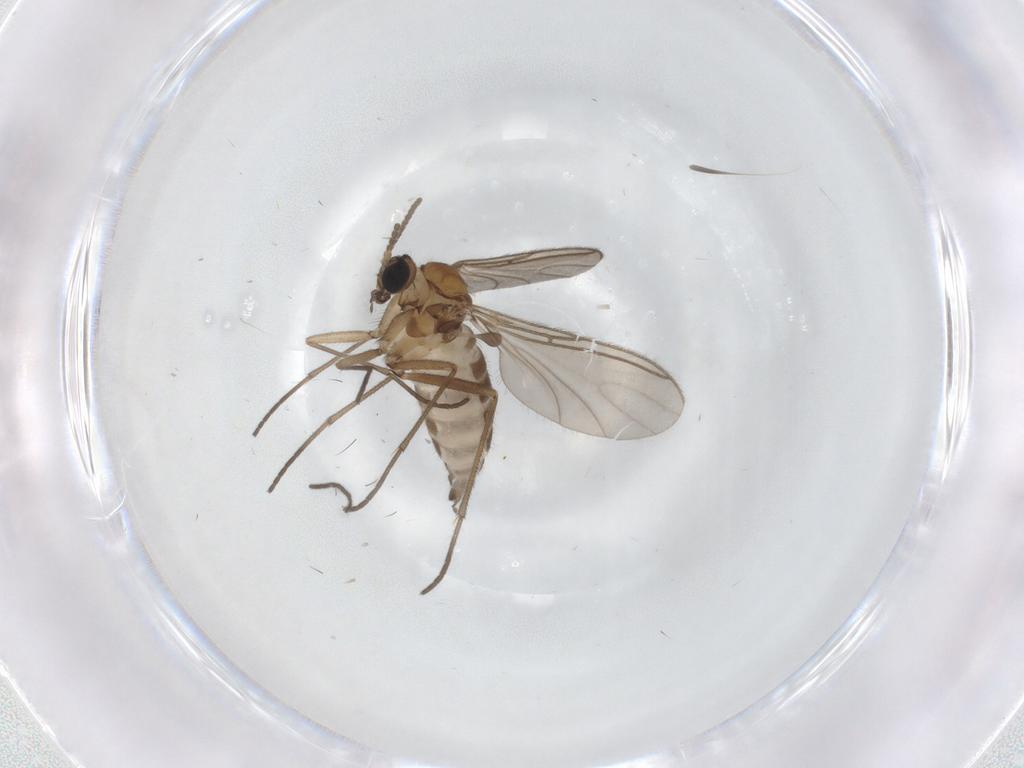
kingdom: Animalia
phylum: Arthropoda
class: Insecta
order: Diptera
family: Sciaridae
